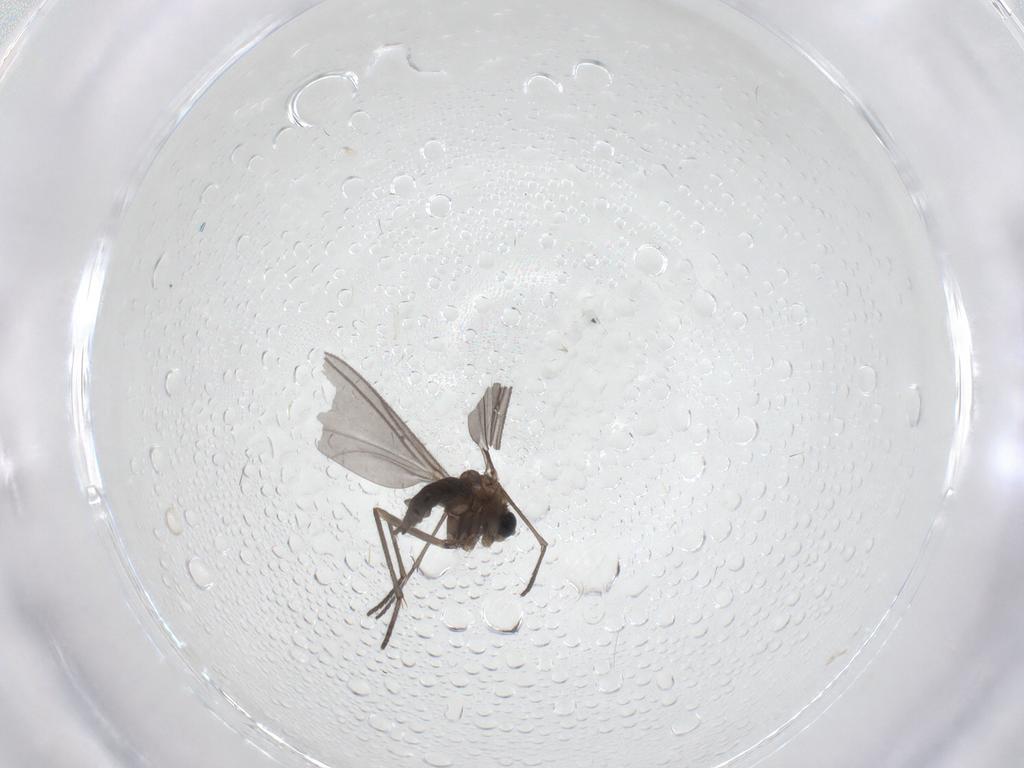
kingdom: Animalia
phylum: Arthropoda
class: Insecta
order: Diptera
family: Sciaridae
